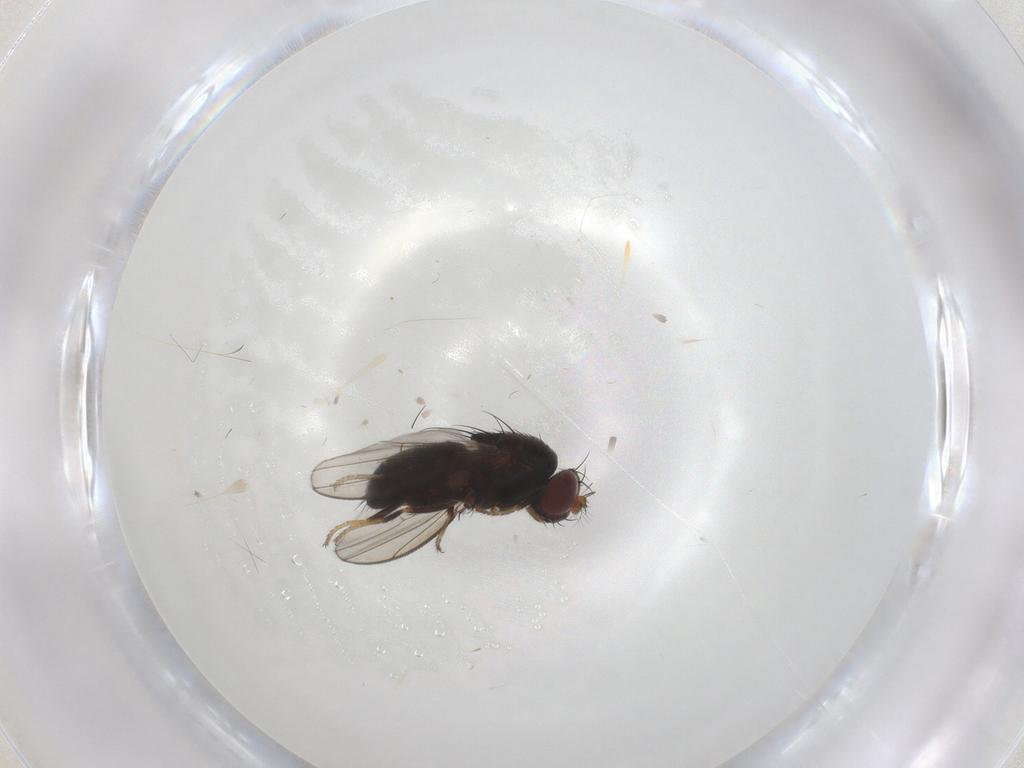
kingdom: Animalia
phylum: Arthropoda
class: Insecta
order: Diptera
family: Ephydridae
